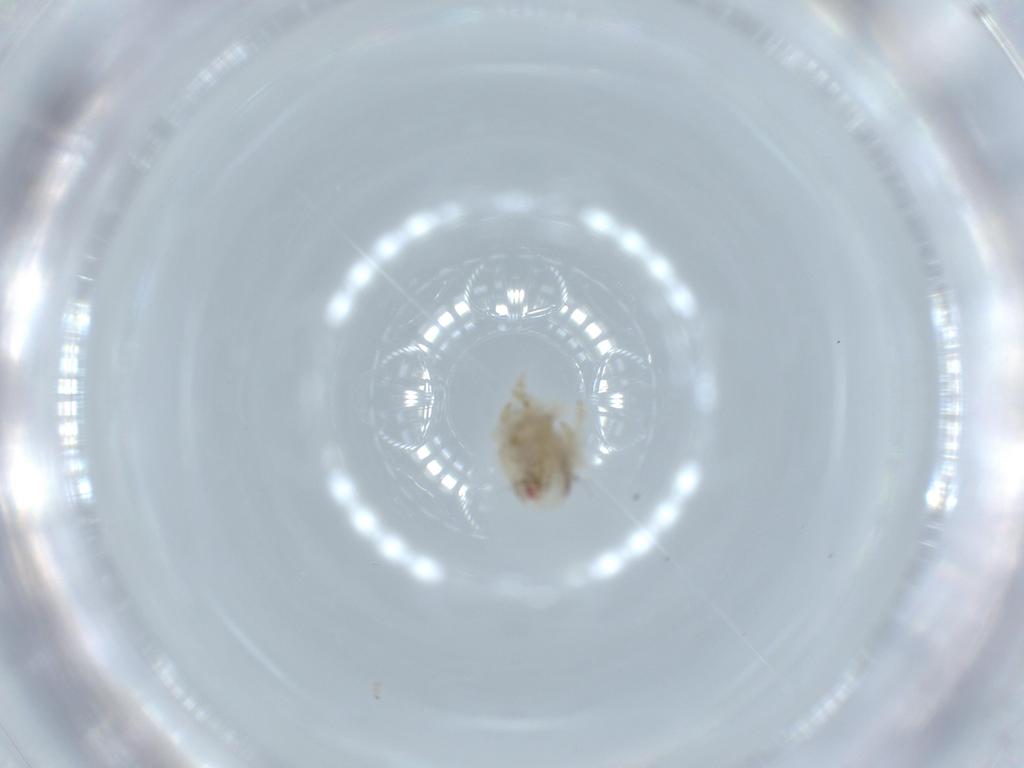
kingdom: Animalia
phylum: Arthropoda
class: Insecta
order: Hemiptera
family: Acanaloniidae
